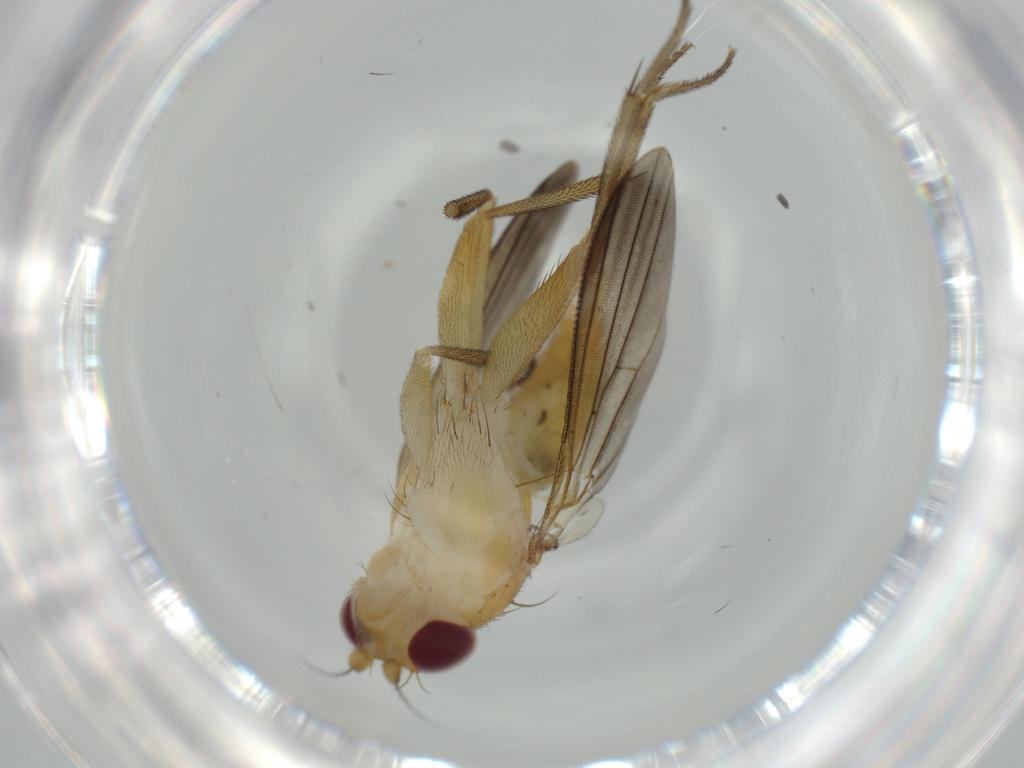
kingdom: Animalia
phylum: Arthropoda
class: Insecta
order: Diptera
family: Clusiidae
